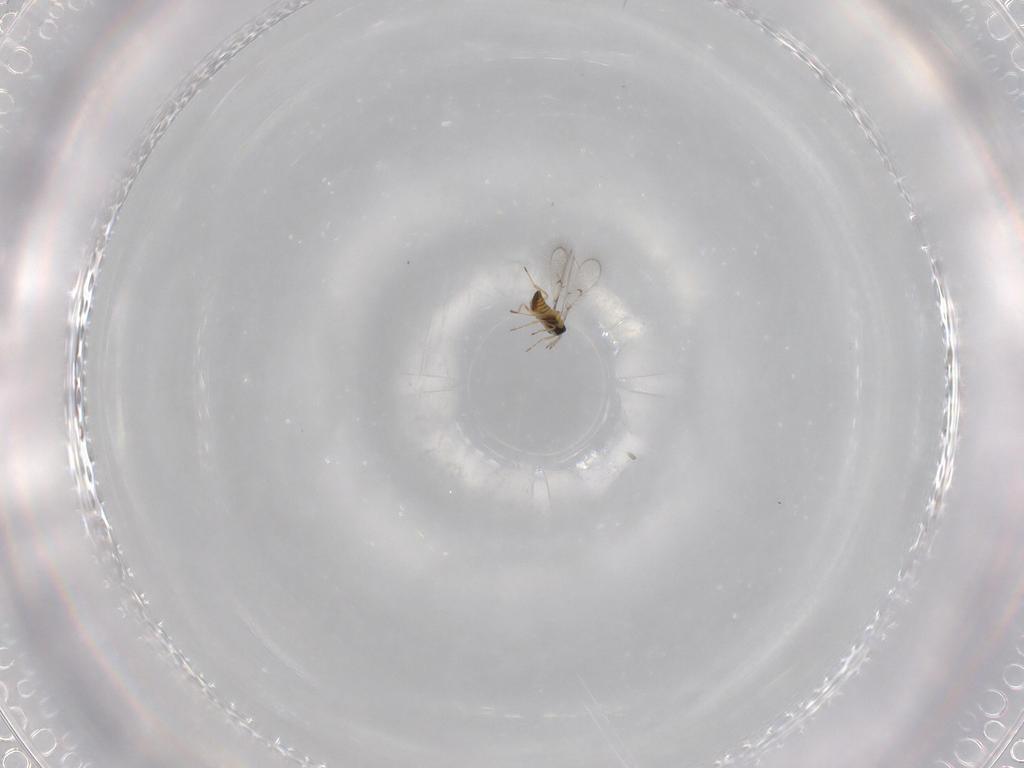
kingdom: Animalia
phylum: Arthropoda
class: Insecta
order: Hymenoptera
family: Trichogrammatidae
